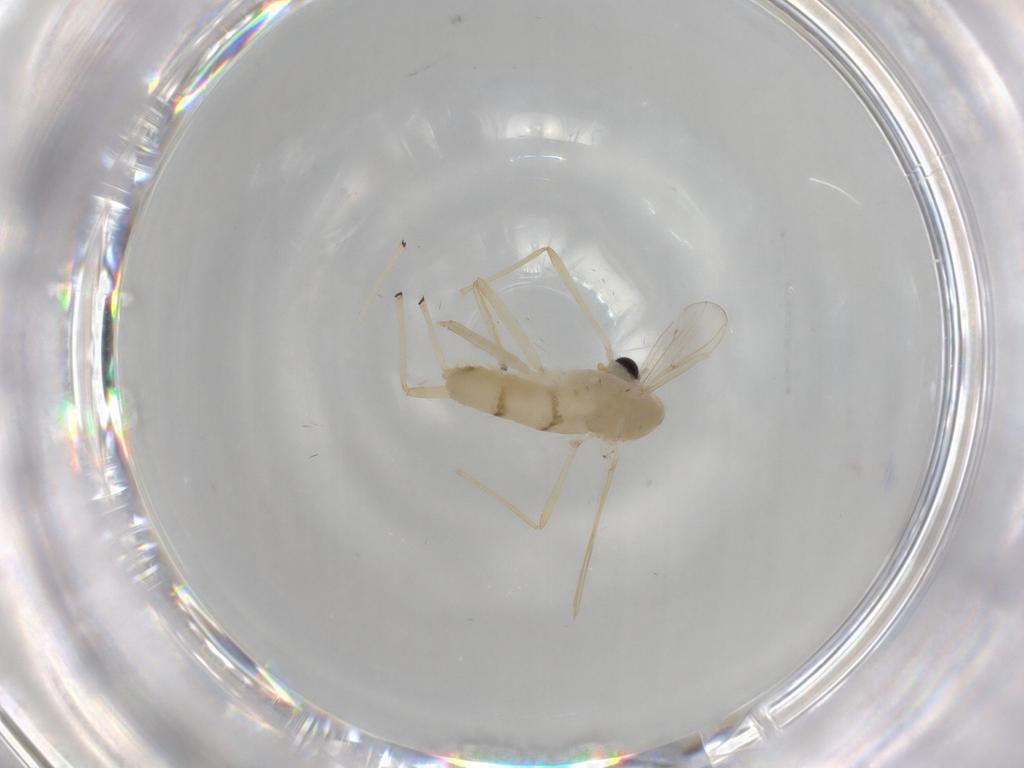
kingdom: Animalia
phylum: Arthropoda
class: Insecta
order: Diptera
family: Chironomidae
